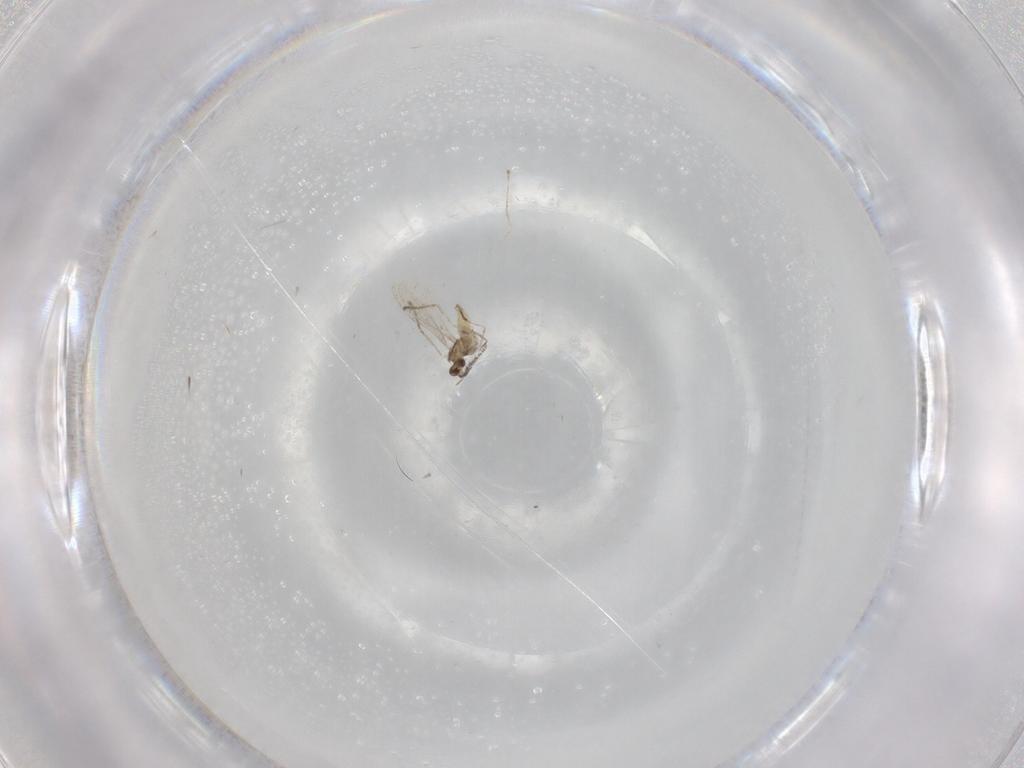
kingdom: Animalia
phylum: Arthropoda
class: Insecta
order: Diptera
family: Cecidomyiidae
